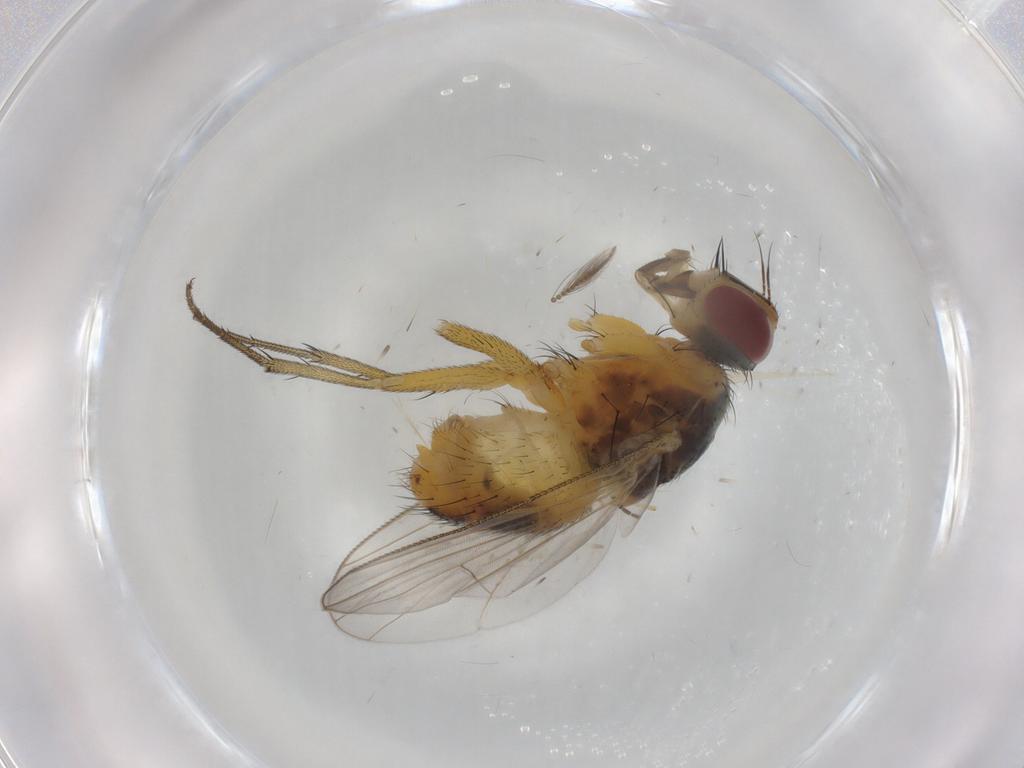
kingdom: Animalia
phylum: Arthropoda
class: Insecta
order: Diptera
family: Muscidae
